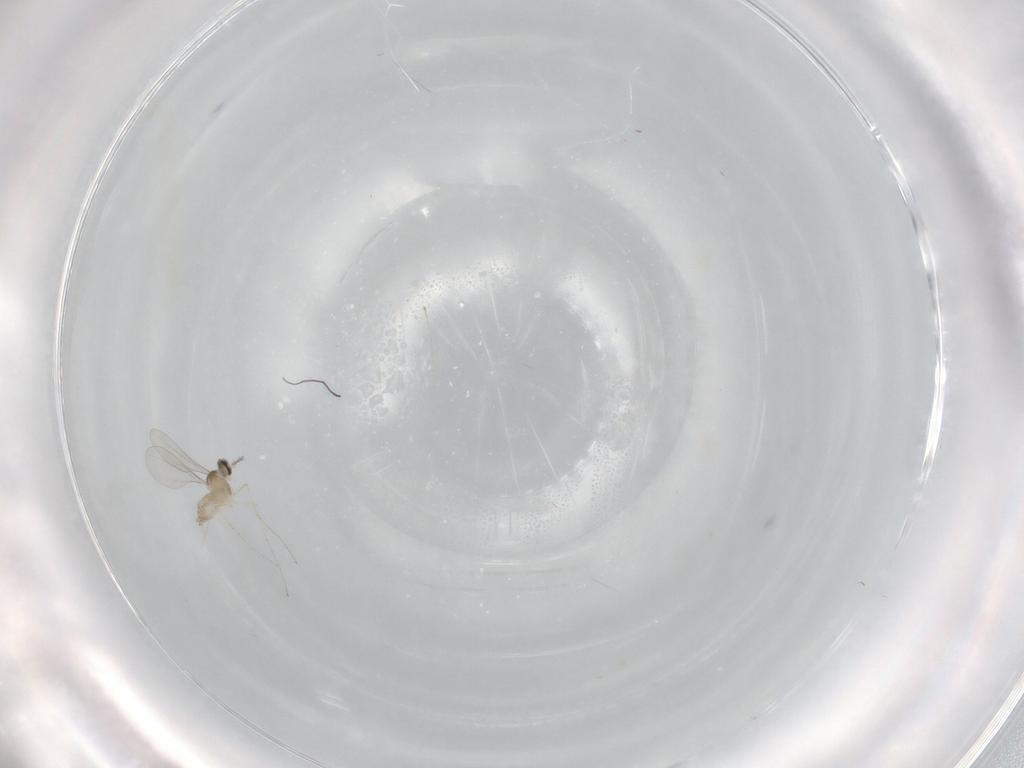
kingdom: Animalia
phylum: Arthropoda
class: Insecta
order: Diptera
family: Cecidomyiidae
